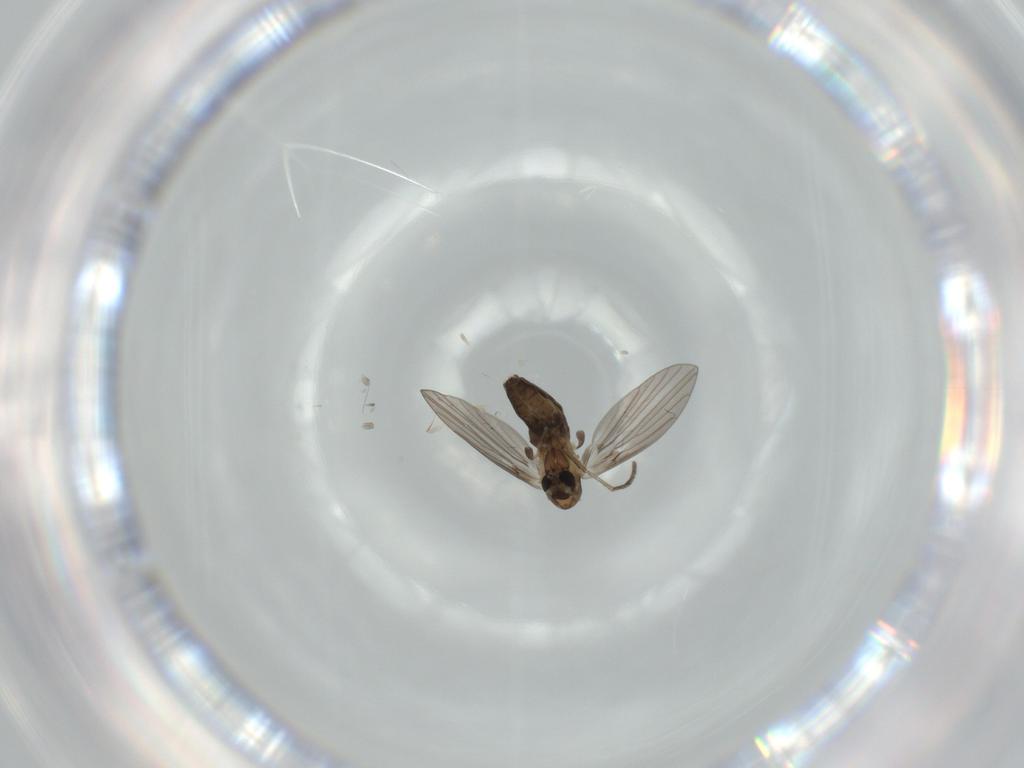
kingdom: Animalia
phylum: Arthropoda
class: Insecta
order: Diptera
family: Psychodidae
